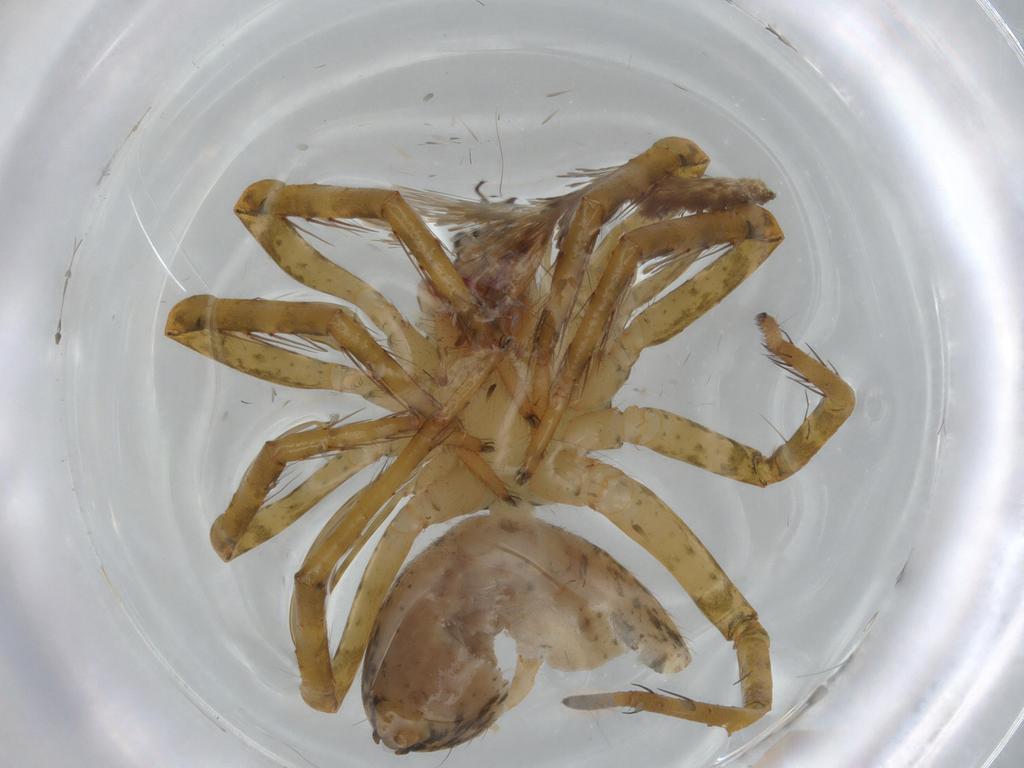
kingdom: Animalia
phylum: Arthropoda
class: Arachnida
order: Araneae
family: Ctenidae
